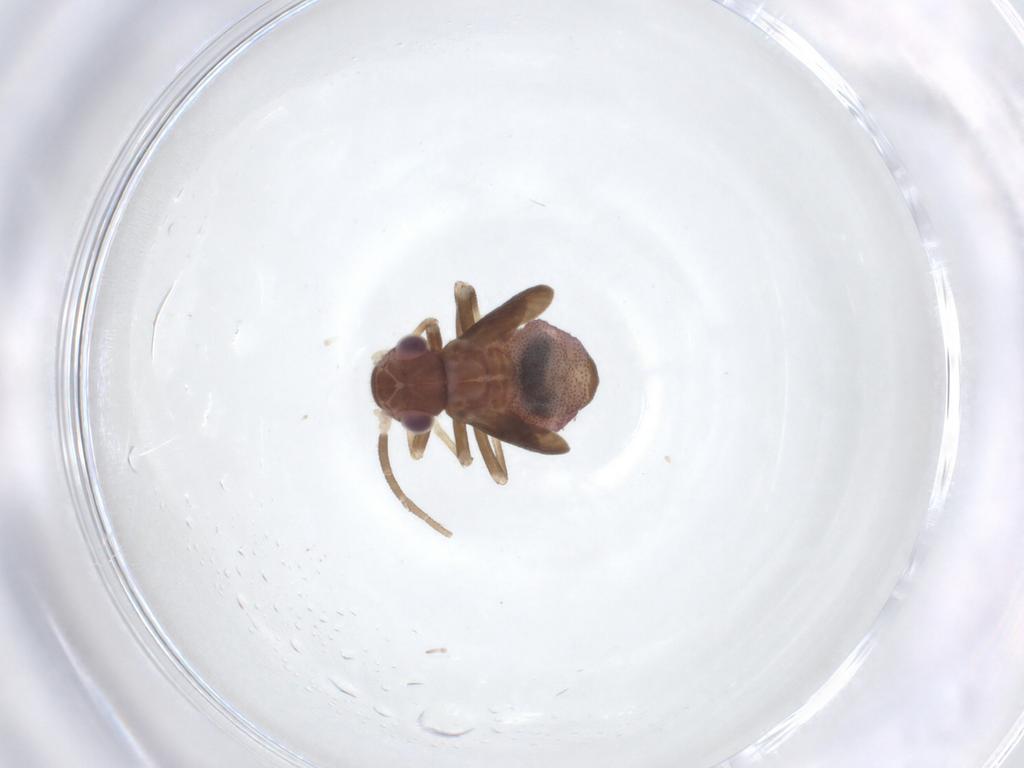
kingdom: Animalia
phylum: Arthropoda
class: Insecta
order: Psocodea
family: Amphipsocidae
